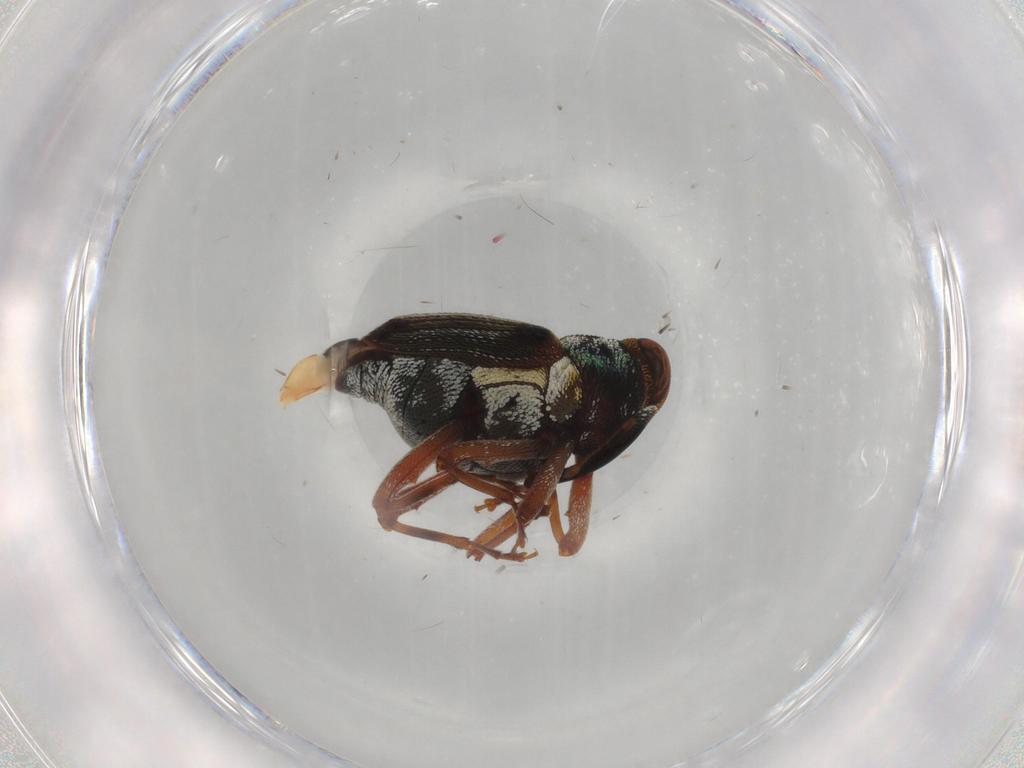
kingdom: Animalia
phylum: Arthropoda
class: Insecta
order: Coleoptera
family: Curculionidae
